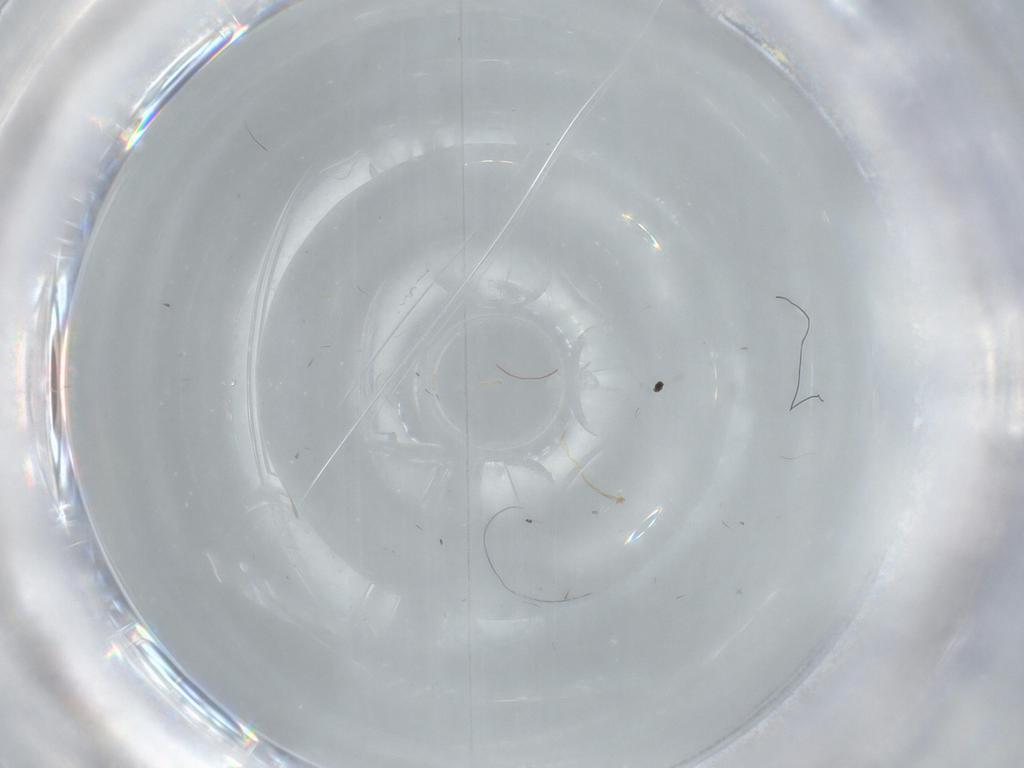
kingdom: Animalia
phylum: Arthropoda
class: Insecta
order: Diptera
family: Cecidomyiidae
